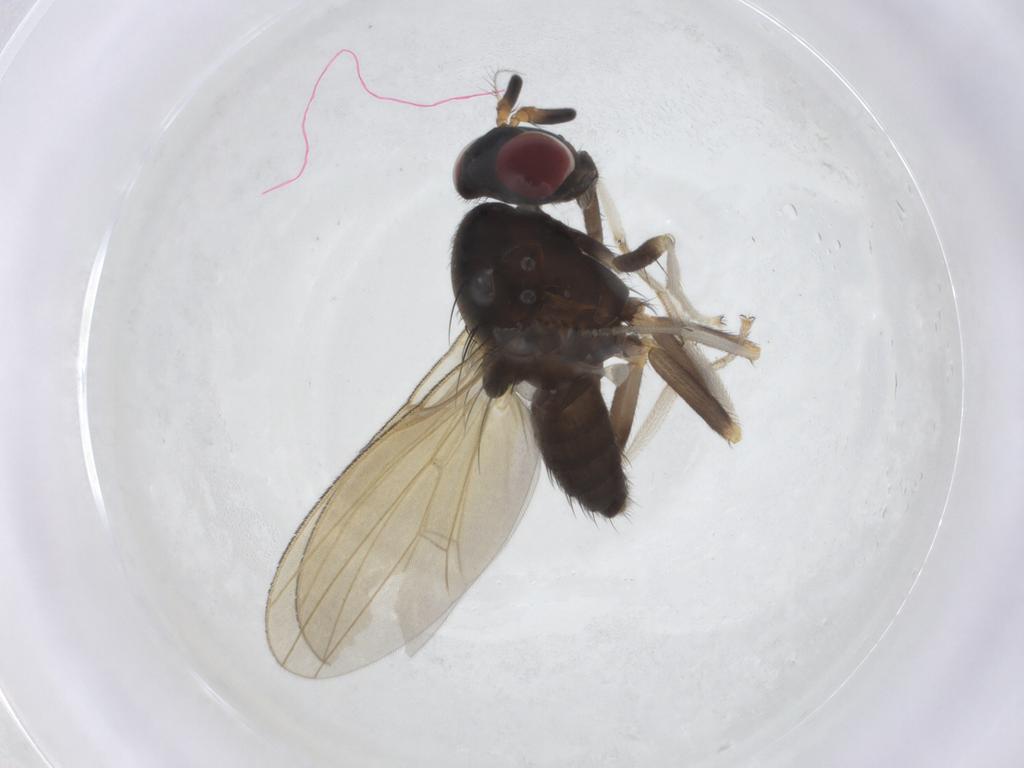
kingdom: Animalia
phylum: Arthropoda
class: Insecta
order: Diptera
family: Lauxaniidae
